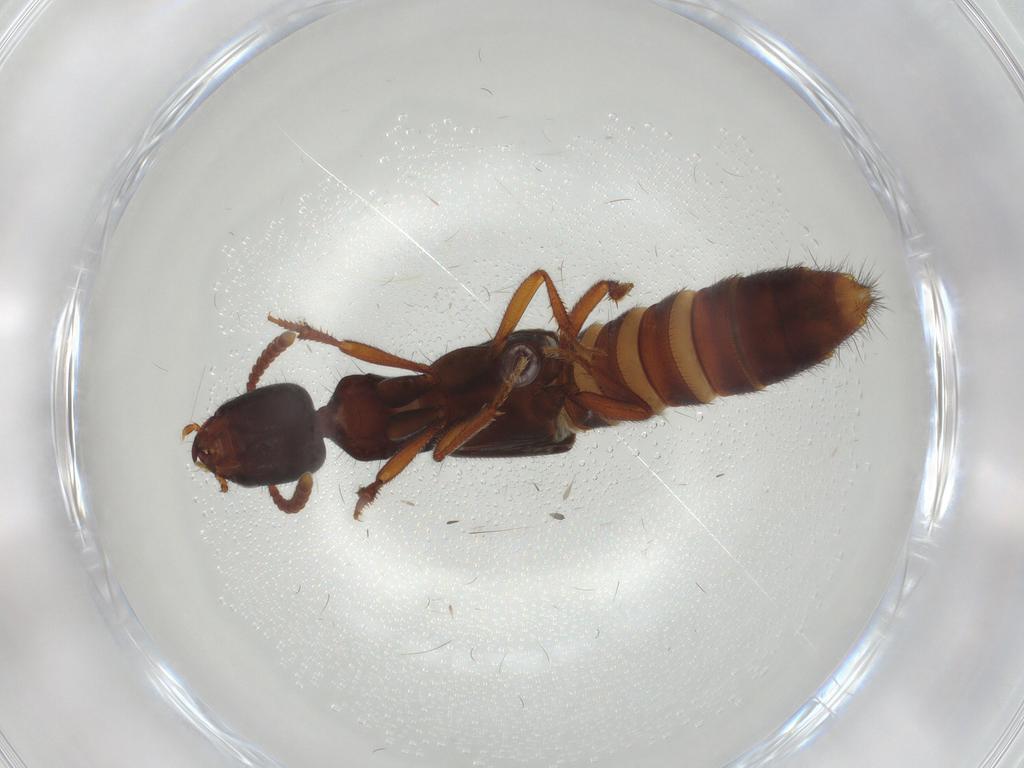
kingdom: Animalia
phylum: Arthropoda
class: Insecta
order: Coleoptera
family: Staphylinidae
